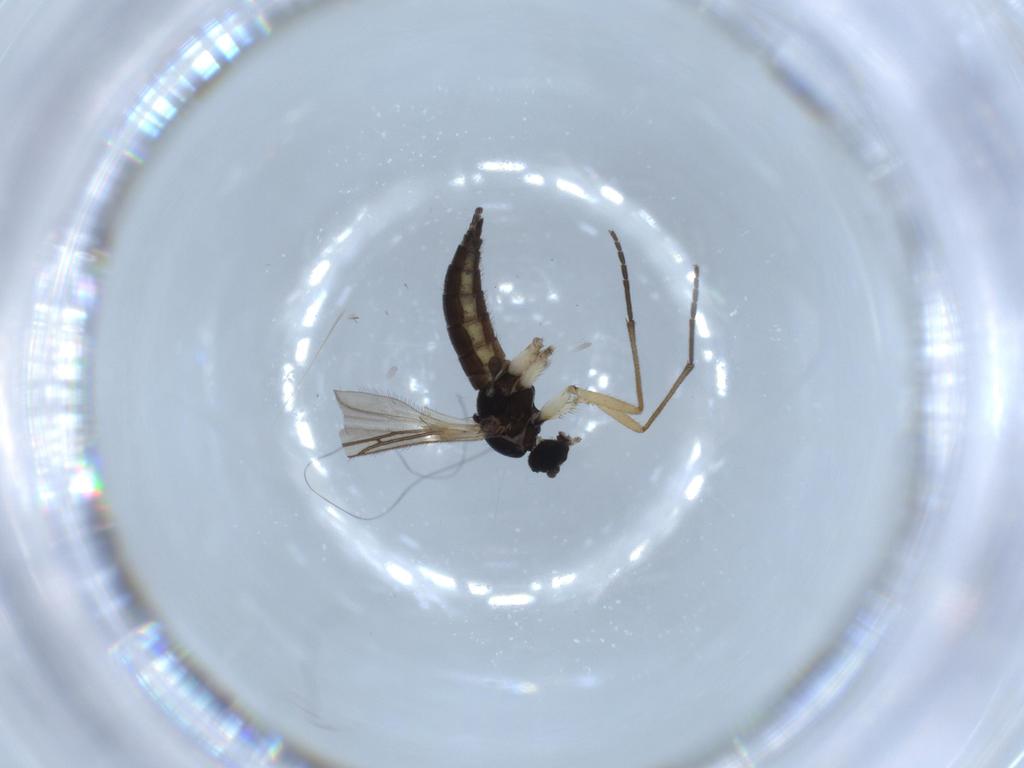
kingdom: Animalia
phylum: Arthropoda
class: Insecta
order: Diptera
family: Sciaridae
